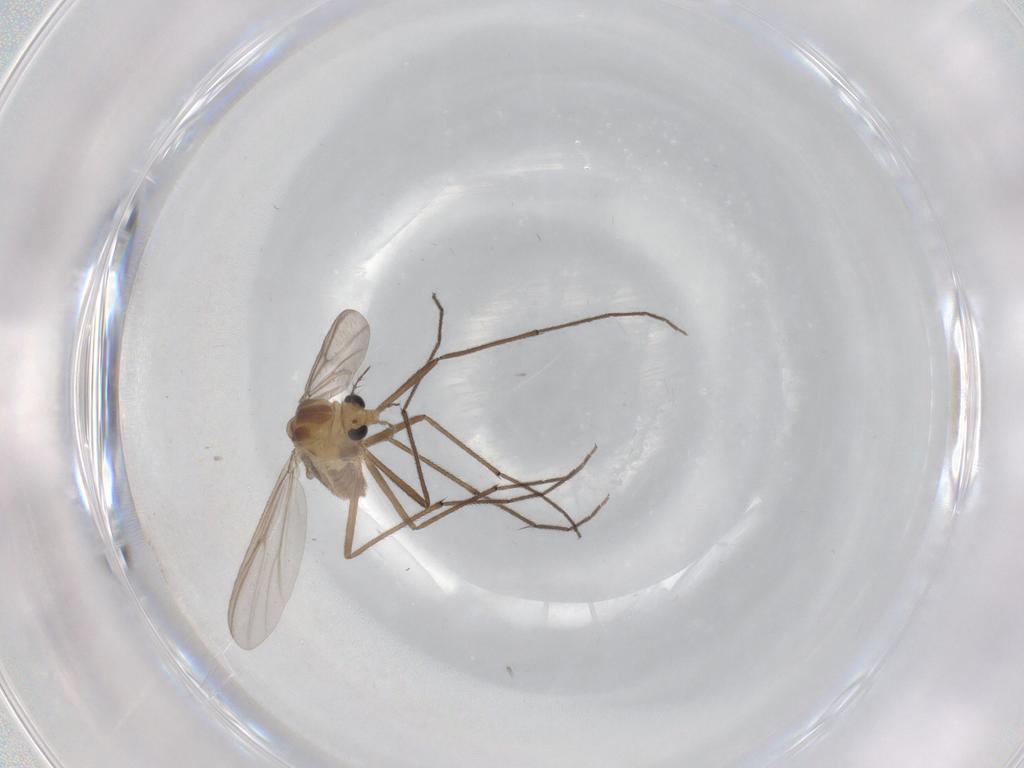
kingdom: Animalia
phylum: Arthropoda
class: Insecta
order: Diptera
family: Chironomidae
